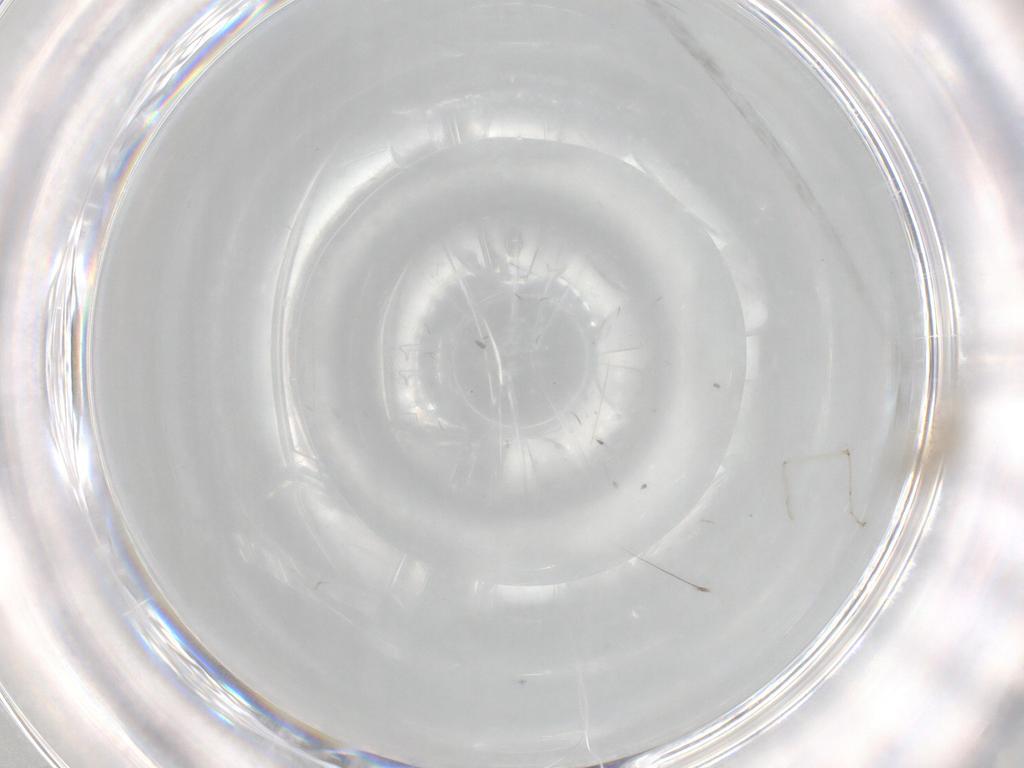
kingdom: Animalia
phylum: Arthropoda
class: Insecta
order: Diptera
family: Cecidomyiidae
